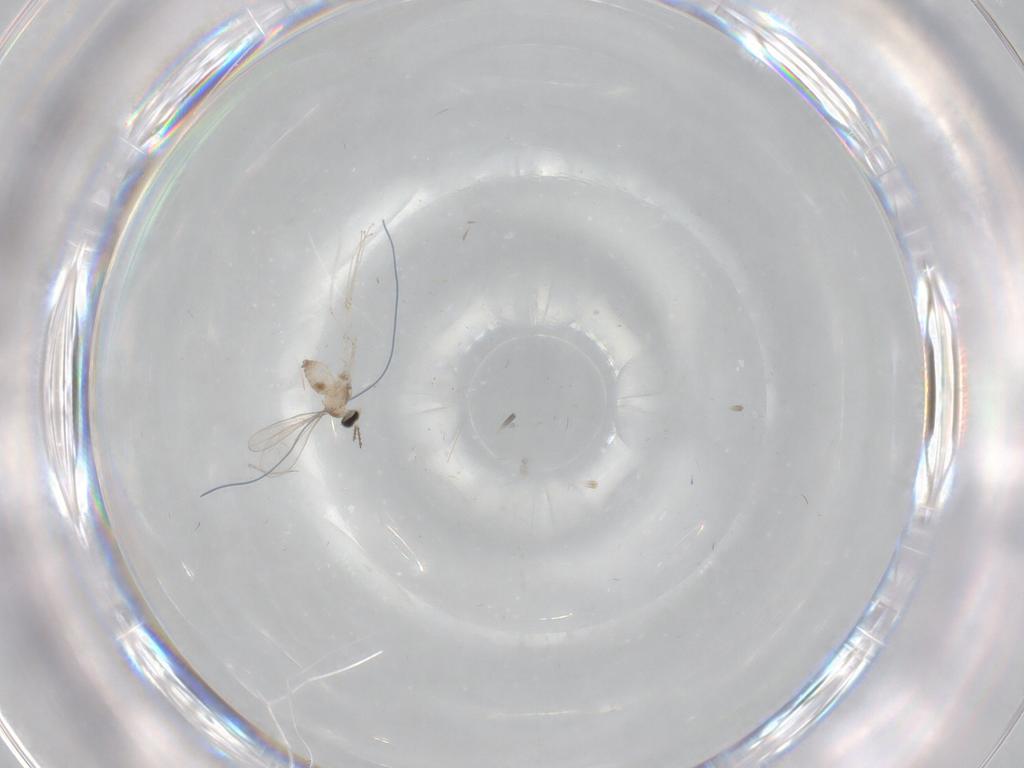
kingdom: Animalia
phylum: Arthropoda
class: Insecta
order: Diptera
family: Cecidomyiidae
